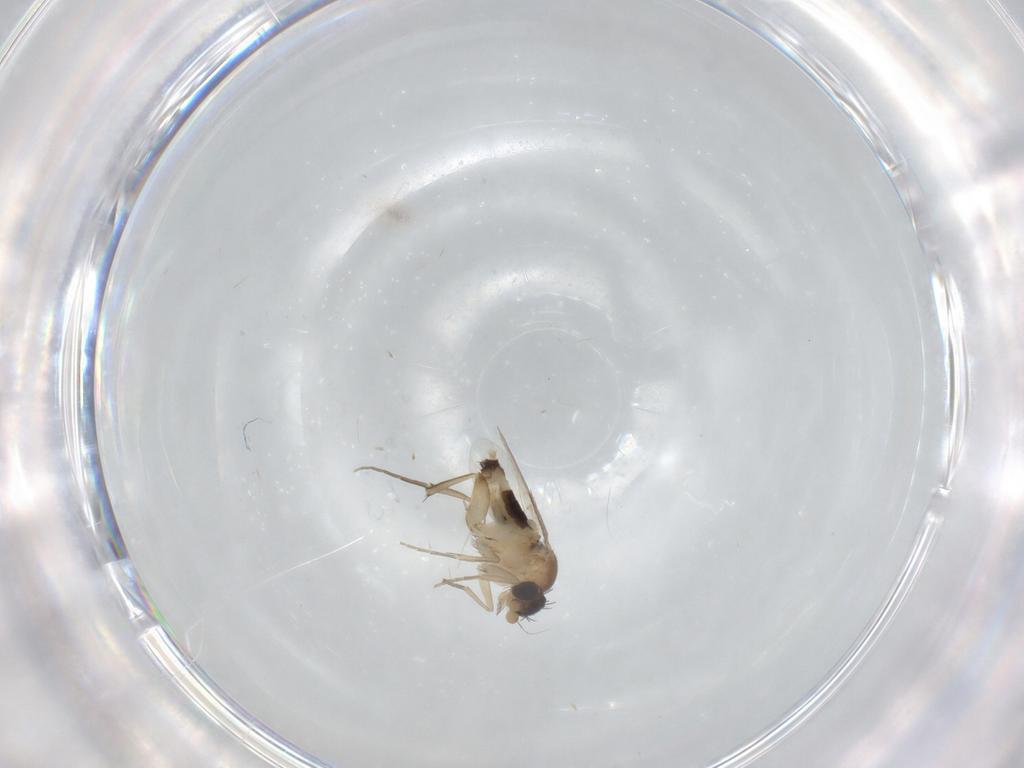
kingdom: Animalia
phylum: Arthropoda
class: Insecta
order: Diptera
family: Phoridae
